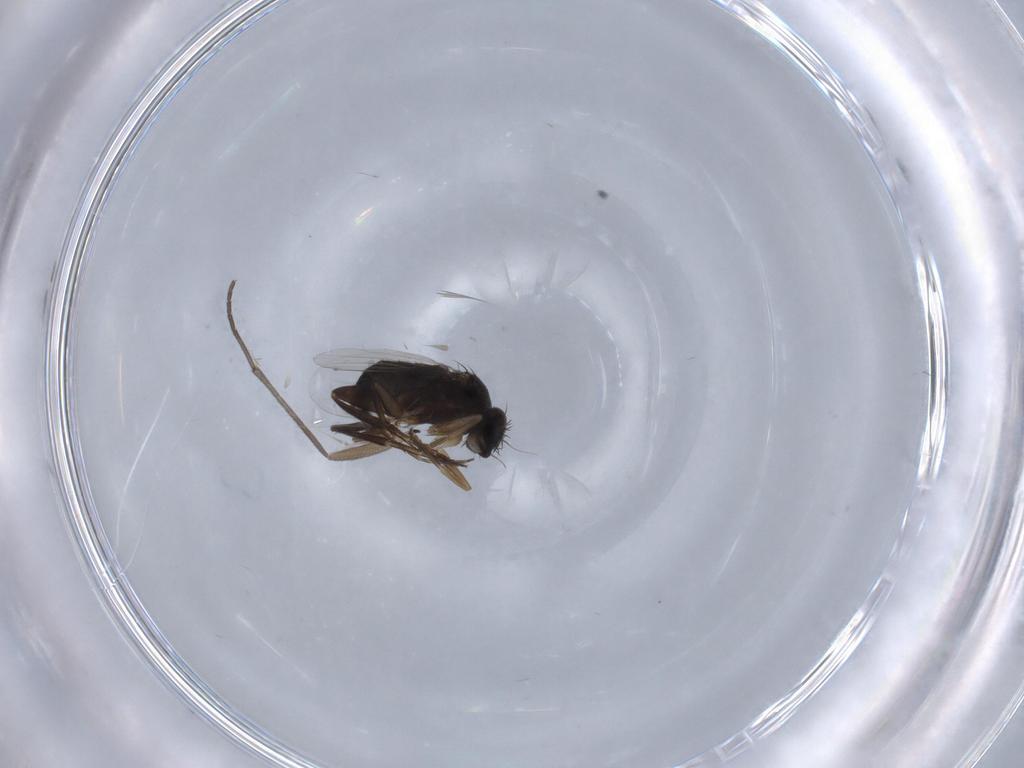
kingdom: Animalia
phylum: Arthropoda
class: Insecta
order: Diptera
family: Phoridae
